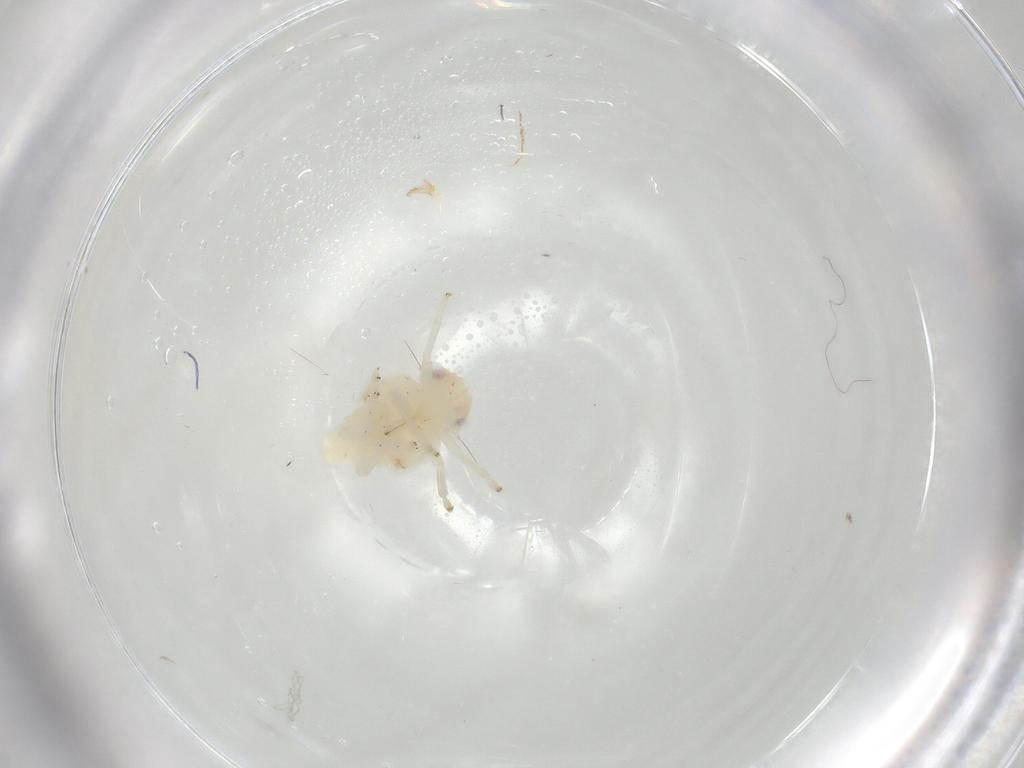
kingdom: Animalia
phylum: Arthropoda
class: Insecta
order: Hemiptera
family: Nogodinidae
